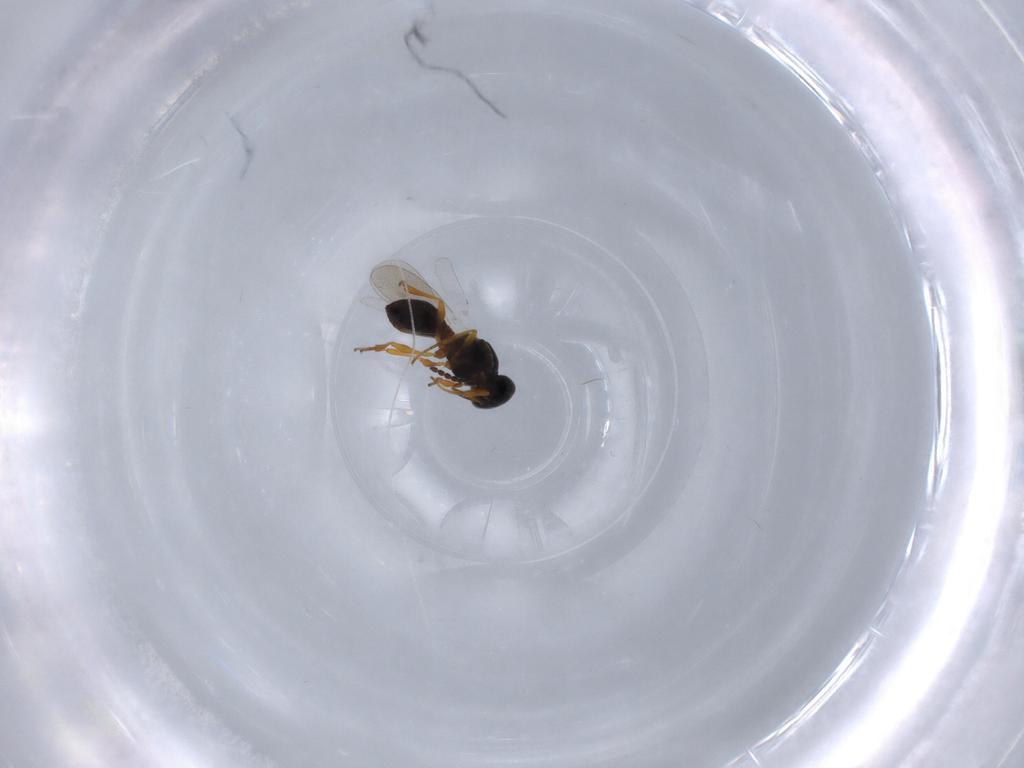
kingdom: Animalia
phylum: Arthropoda
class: Insecta
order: Hymenoptera
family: Platygastridae
